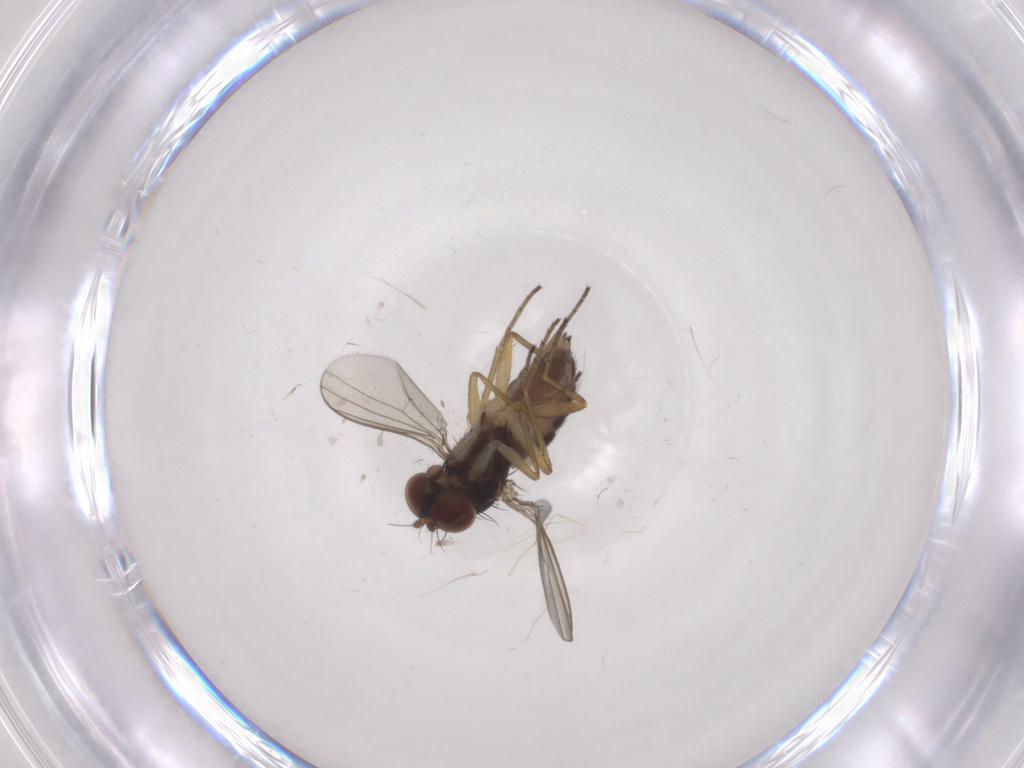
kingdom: Animalia
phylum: Arthropoda
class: Insecta
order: Diptera
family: Dolichopodidae
